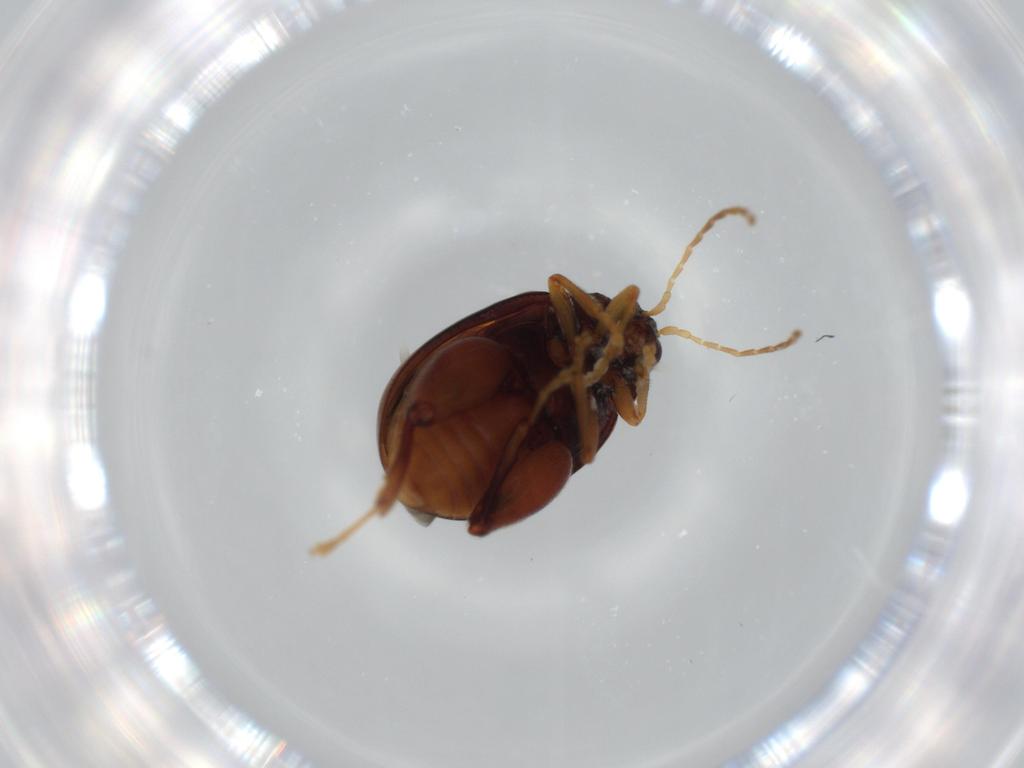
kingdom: Animalia
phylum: Arthropoda
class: Insecta
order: Coleoptera
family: Chrysomelidae
